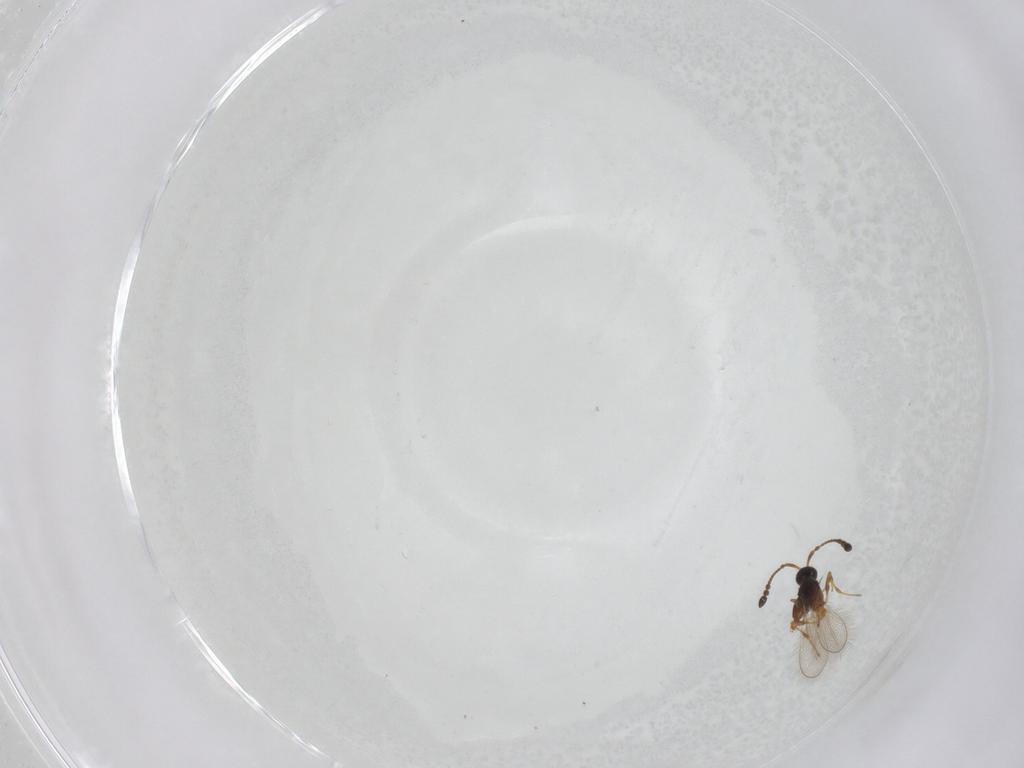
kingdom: Animalia
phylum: Arthropoda
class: Insecta
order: Hymenoptera
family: Diapriidae
